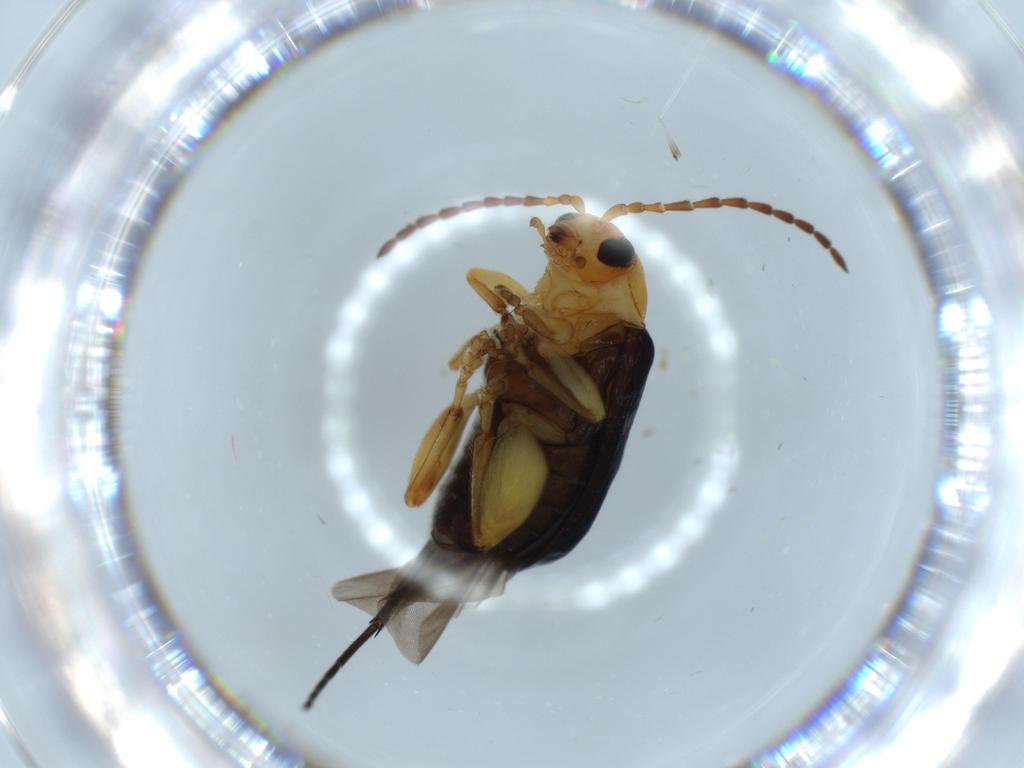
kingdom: Animalia
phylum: Arthropoda
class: Insecta
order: Coleoptera
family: Chrysomelidae
